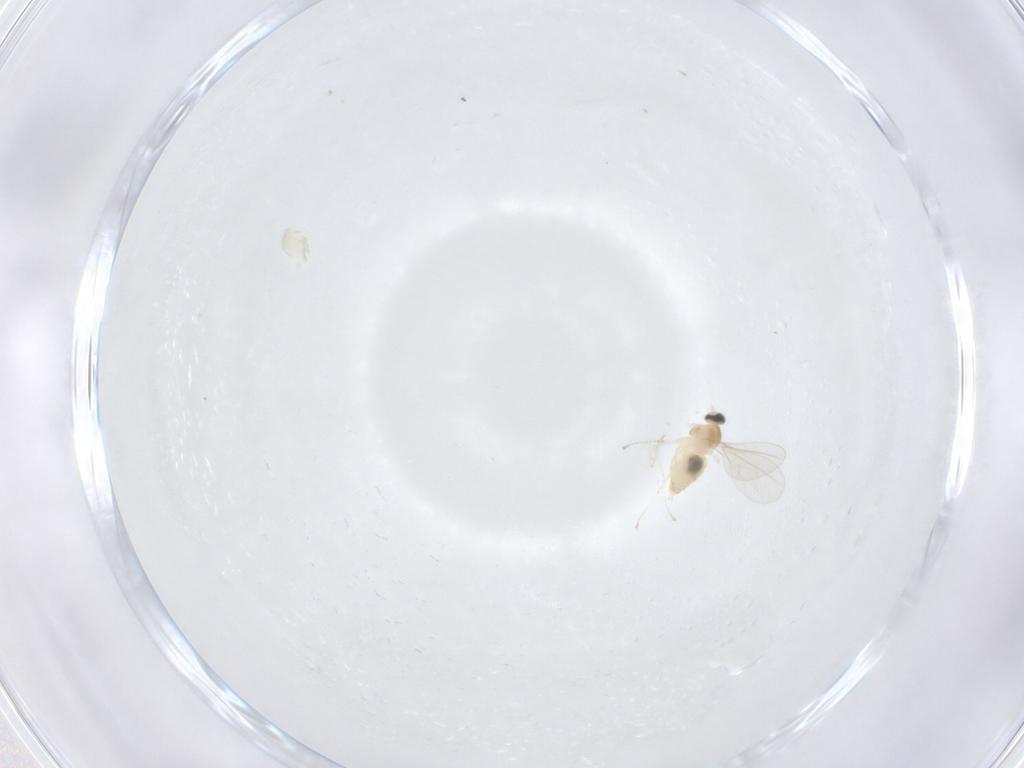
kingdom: Animalia
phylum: Arthropoda
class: Insecta
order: Diptera
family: Cecidomyiidae
